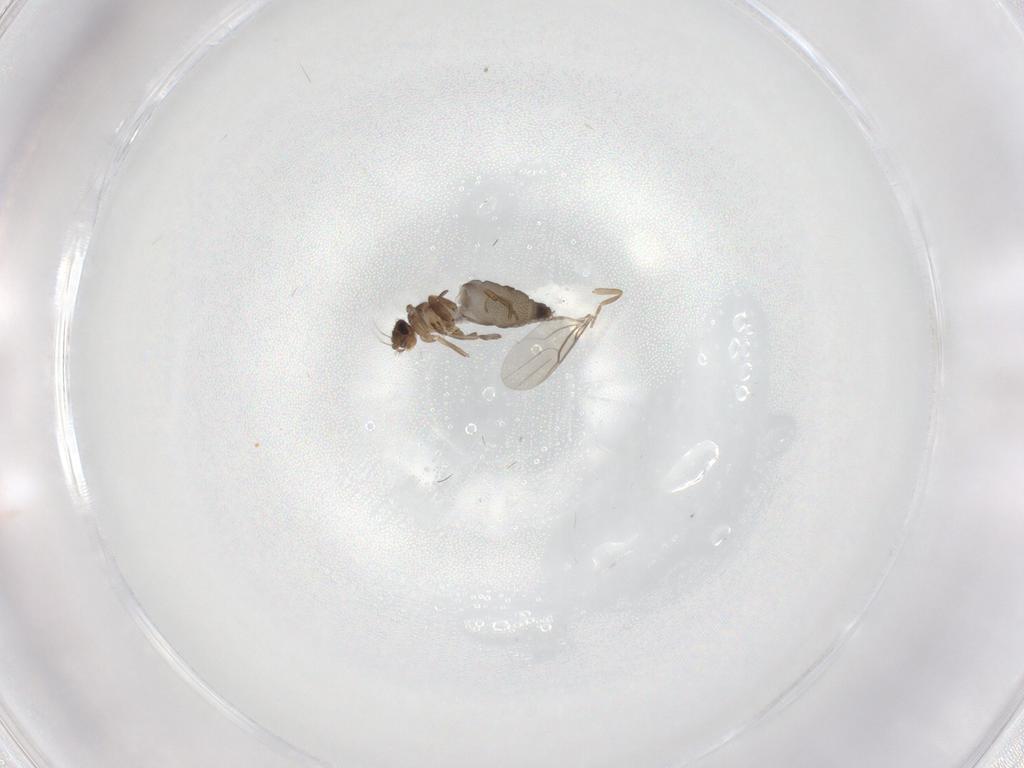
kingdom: Animalia
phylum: Arthropoda
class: Insecta
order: Diptera
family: Phoridae
